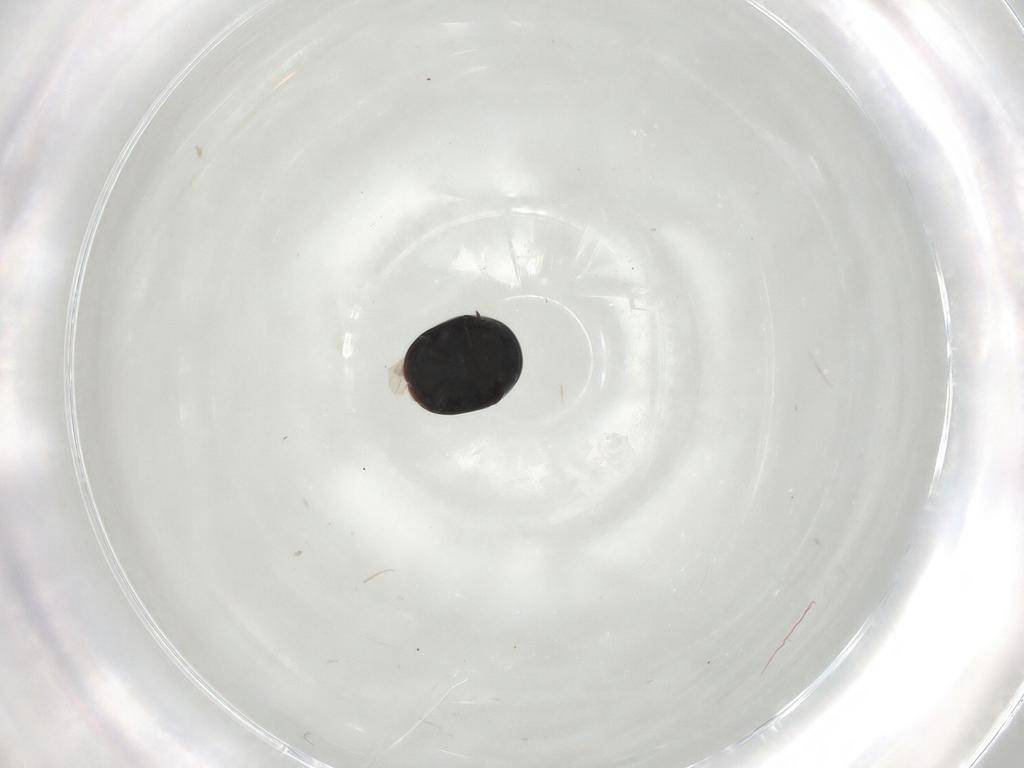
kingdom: Animalia
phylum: Arthropoda
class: Insecta
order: Coleoptera
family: Cybocephalidae
